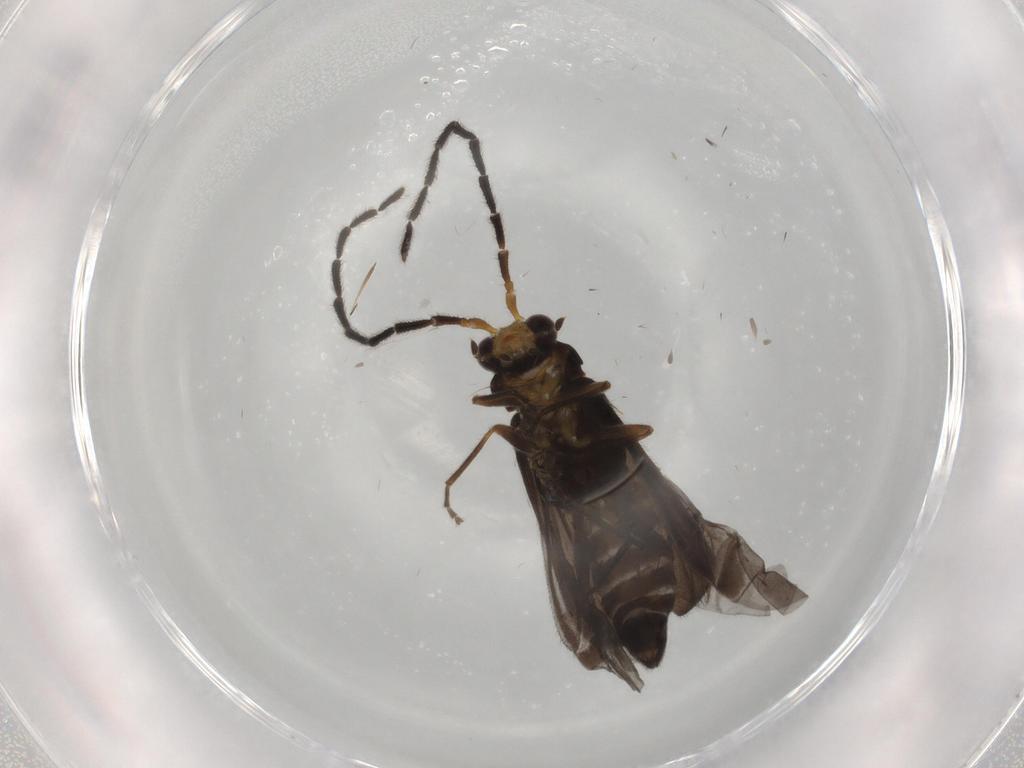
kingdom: Animalia
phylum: Arthropoda
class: Insecta
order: Coleoptera
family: Cantharidae
